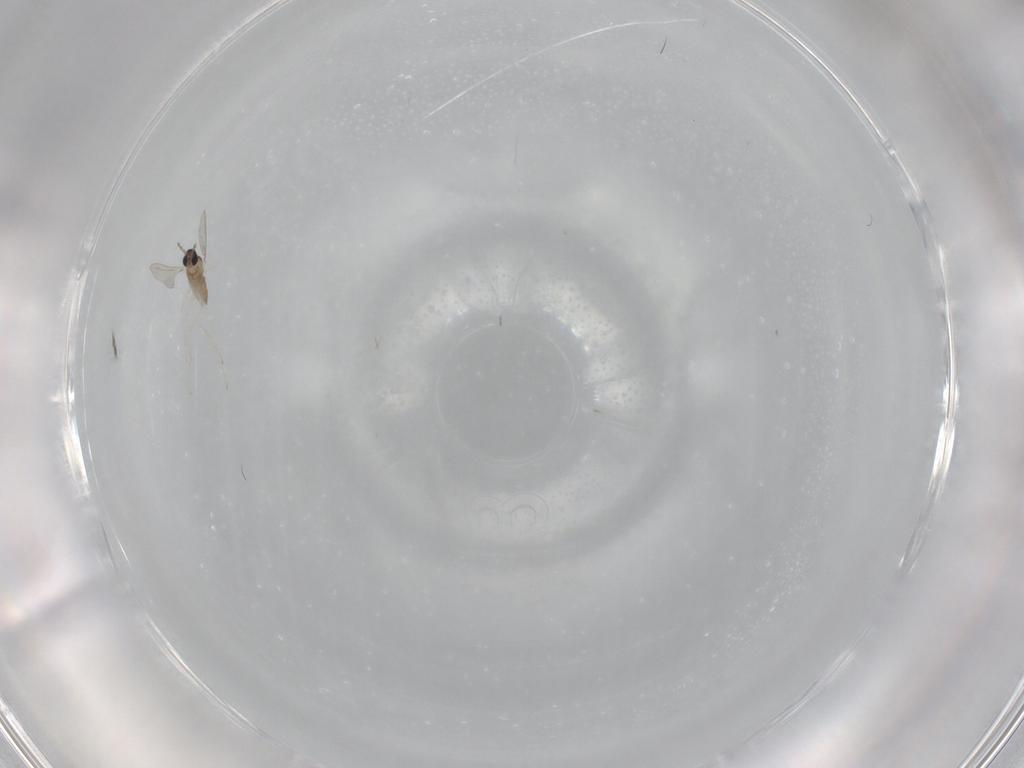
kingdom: Animalia
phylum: Arthropoda
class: Insecta
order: Diptera
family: Cecidomyiidae
